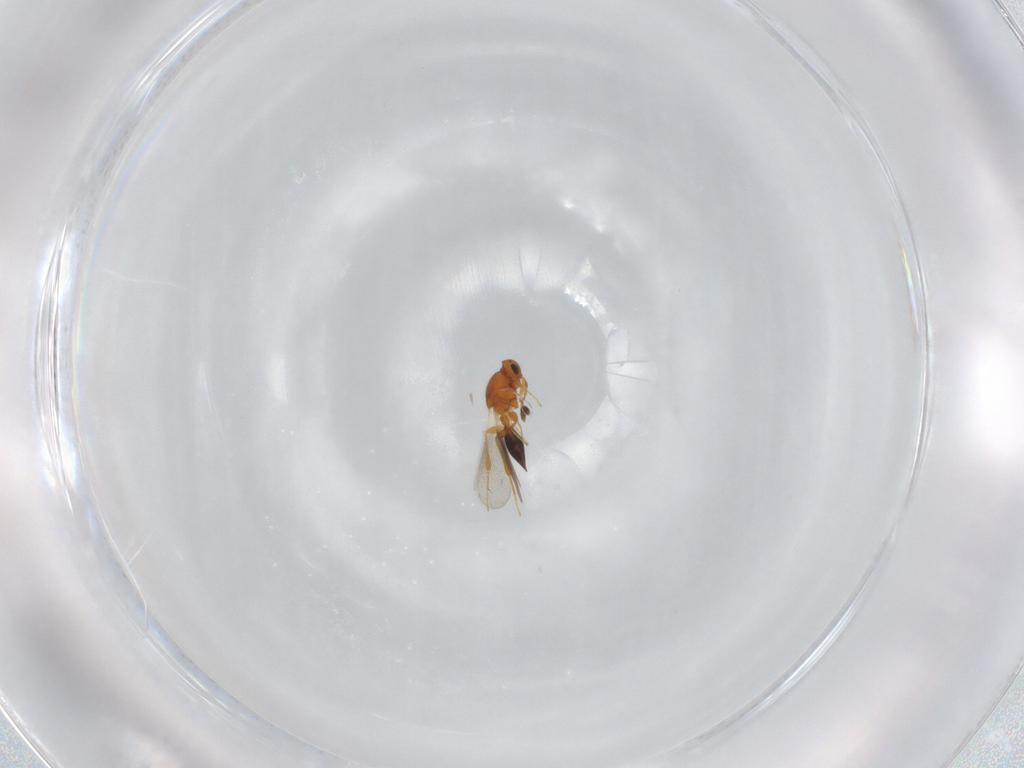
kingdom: Animalia
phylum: Arthropoda
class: Insecta
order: Hymenoptera
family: Platygastridae
